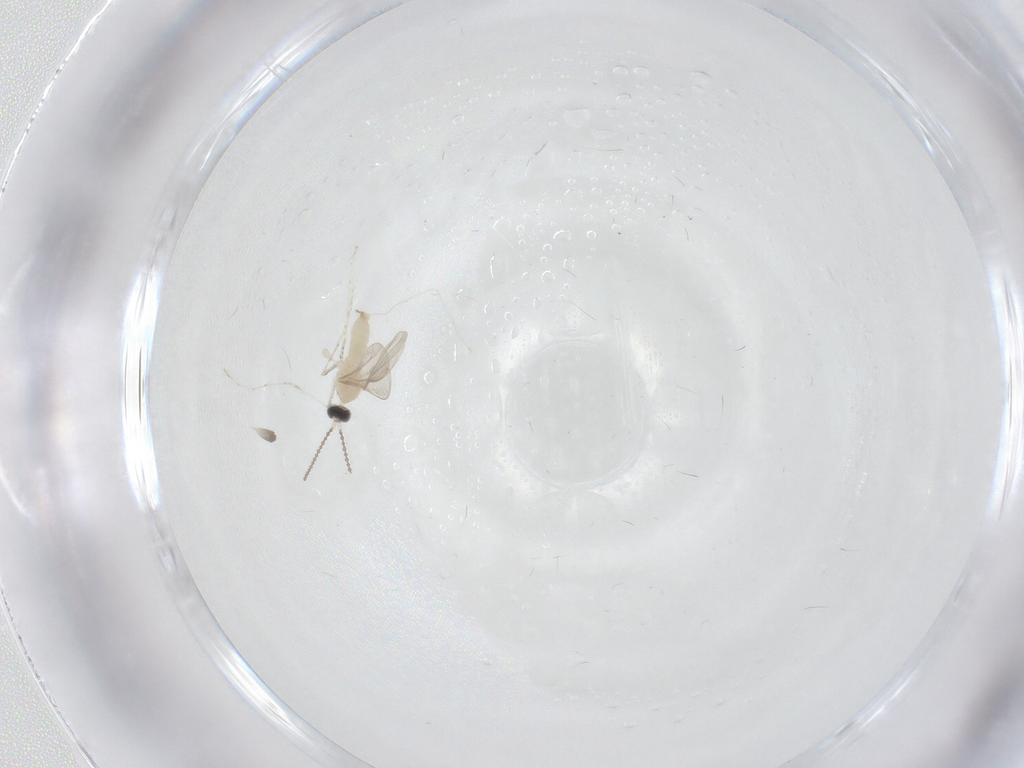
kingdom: Animalia
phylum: Arthropoda
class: Insecta
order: Diptera
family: Cecidomyiidae
